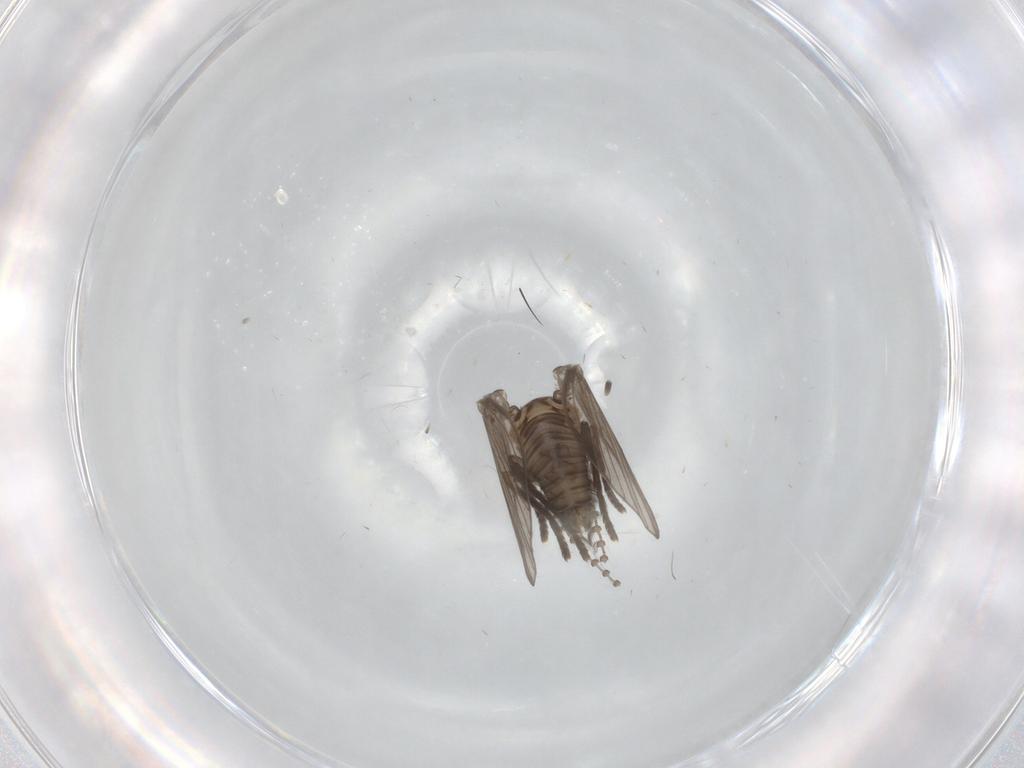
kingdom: Animalia
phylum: Arthropoda
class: Insecta
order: Diptera
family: Psychodidae
